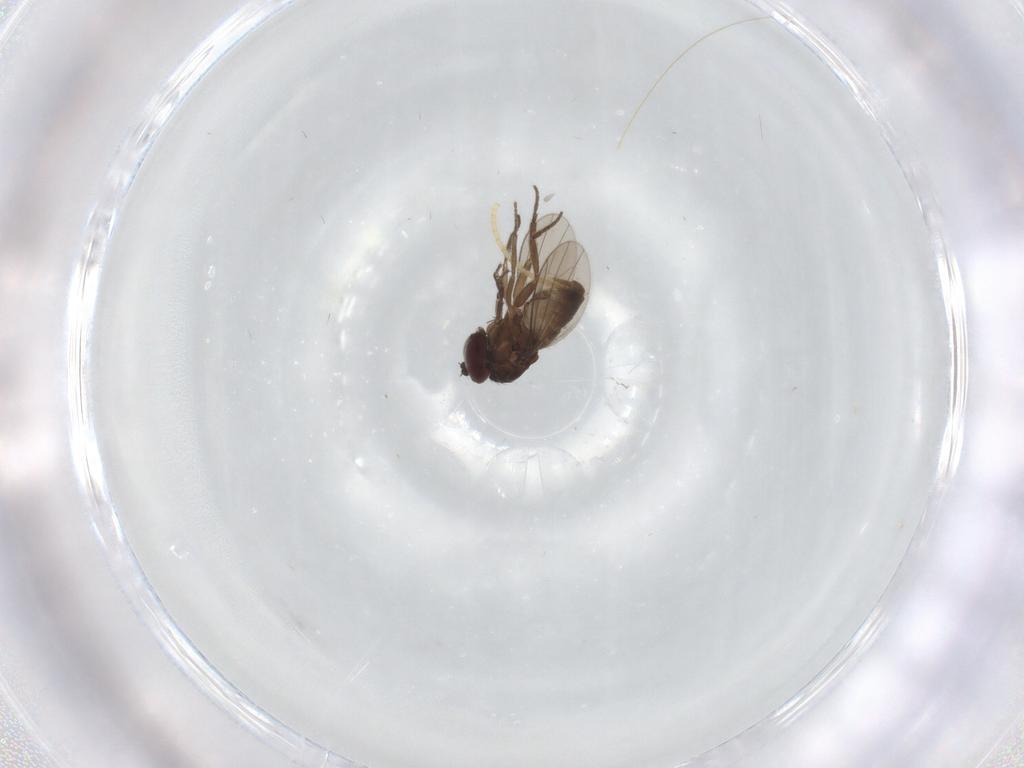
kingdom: Animalia
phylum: Arthropoda
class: Insecta
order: Diptera
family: Dolichopodidae
